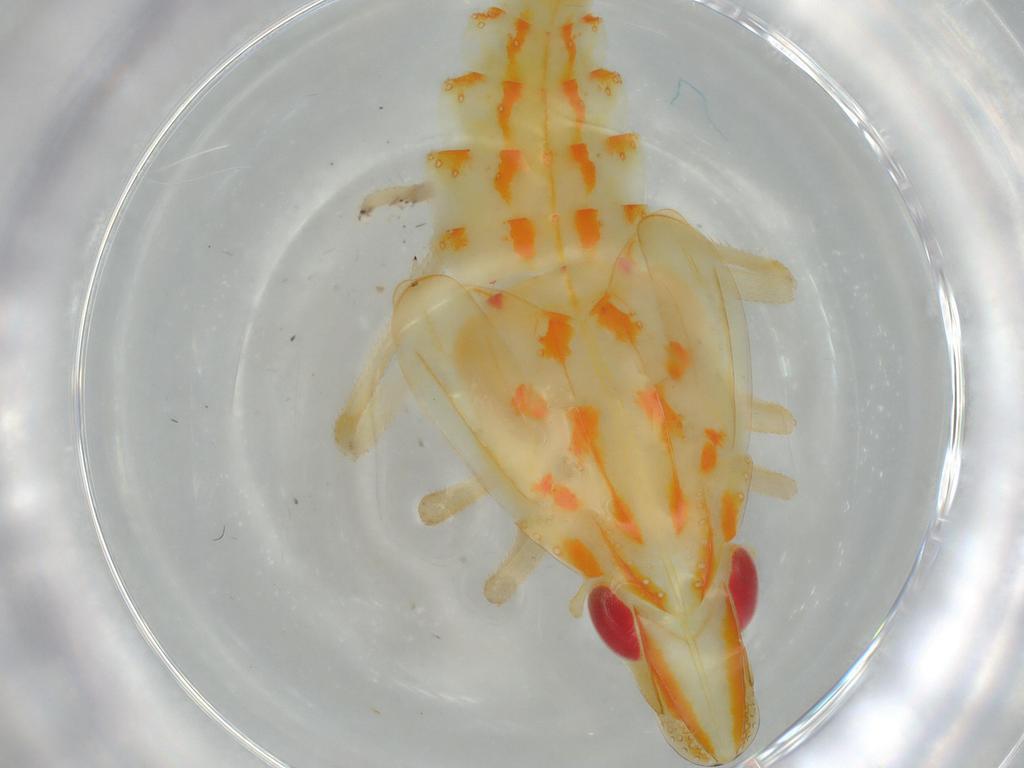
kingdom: Animalia
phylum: Arthropoda
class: Insecta
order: Hemiptera
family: Tropiduchidae
